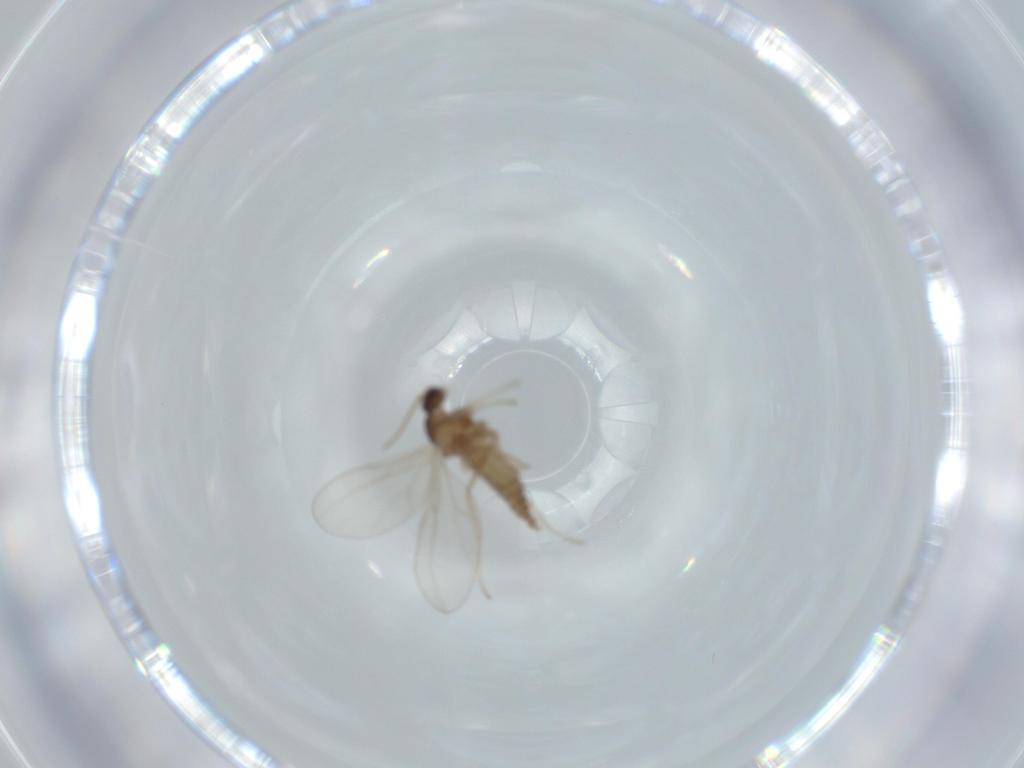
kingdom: Animalia
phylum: Arthropoda
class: Insecta
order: Diptera
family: Cecidomyiidae
